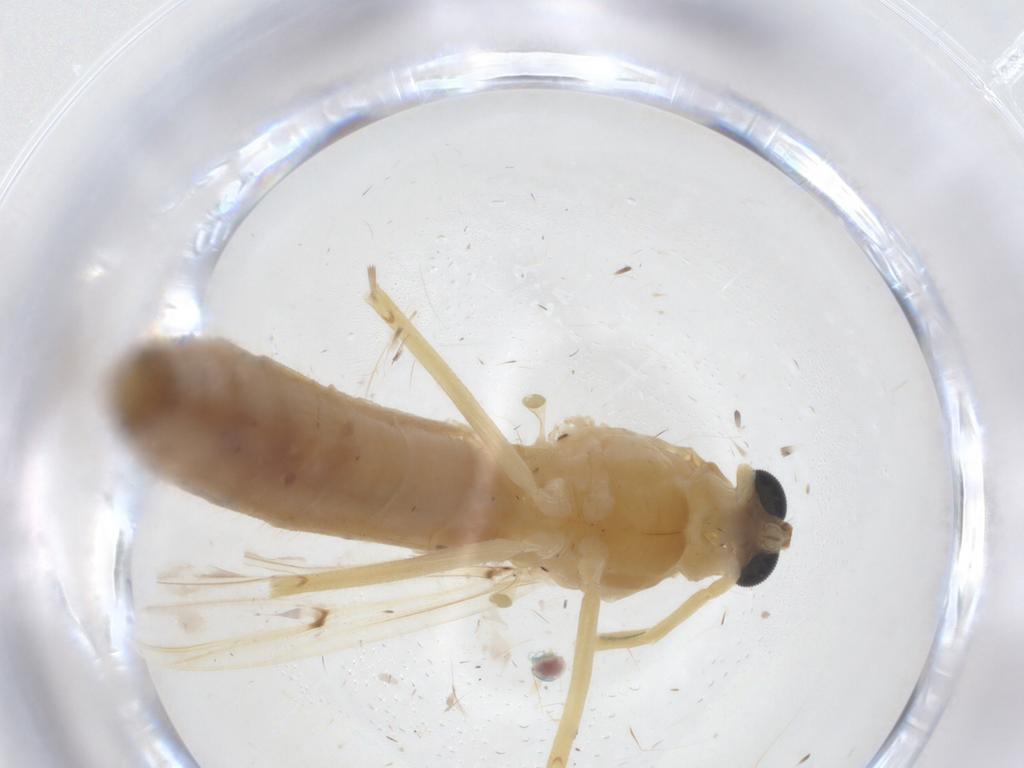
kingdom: Animalia
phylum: Arthropoda
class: Insecta
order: Diptera
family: Chironomidae
